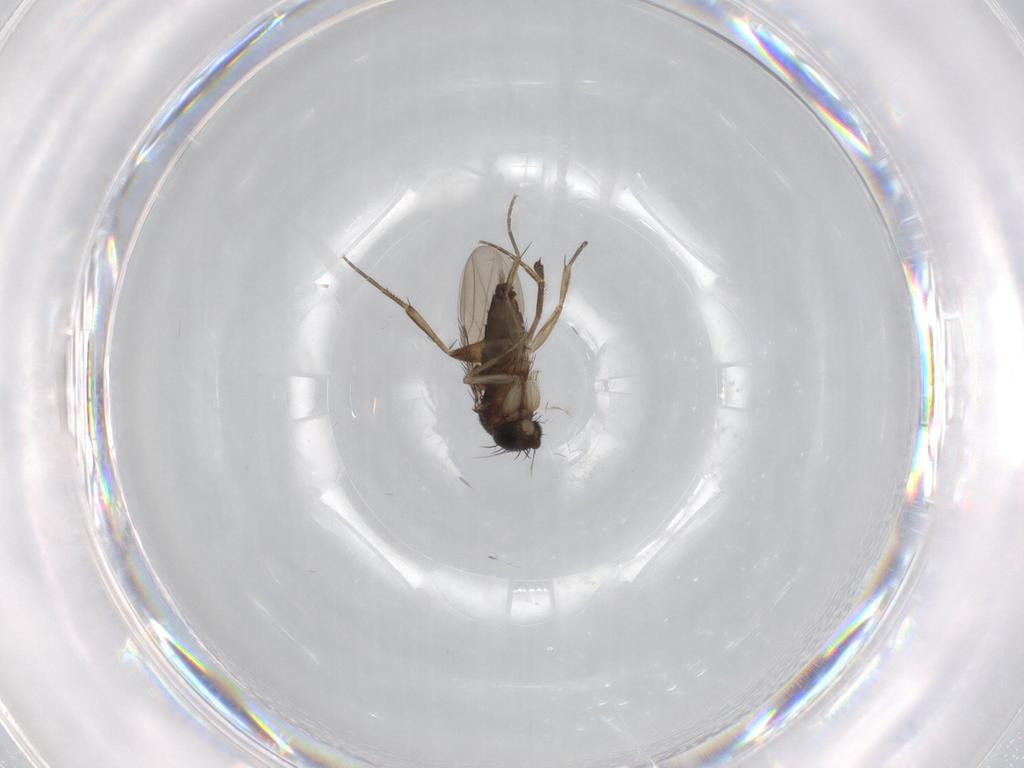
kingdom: Animalia
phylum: Arthropoda
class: Insecta
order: Diptera
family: Phoridae
